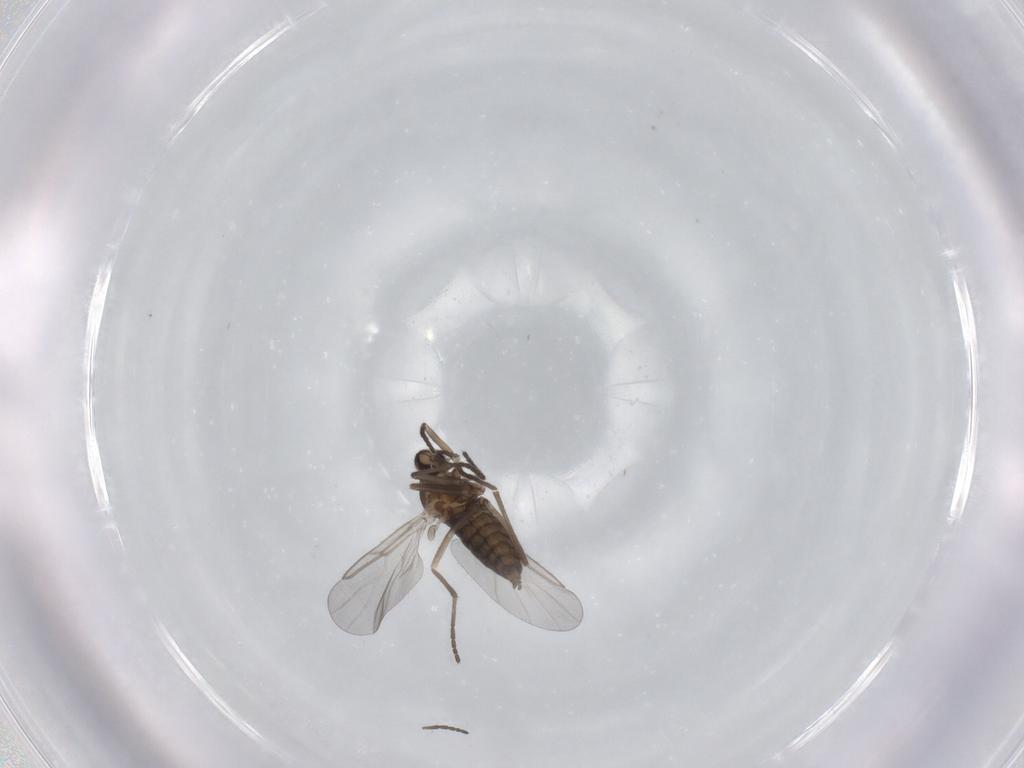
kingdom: Animalia
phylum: Arthropoda
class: Insecta
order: Diptera
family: Cecidomyiidae
